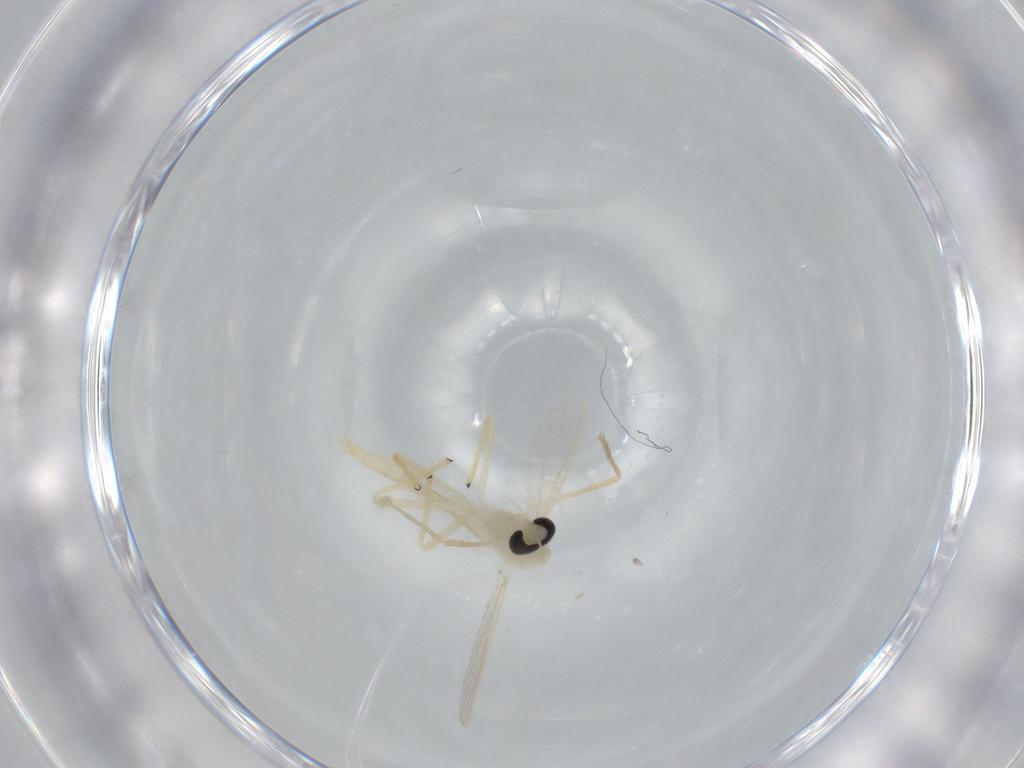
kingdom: Animalia
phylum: Arthropoda
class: Insecta
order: Diptera
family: Chironomidae
